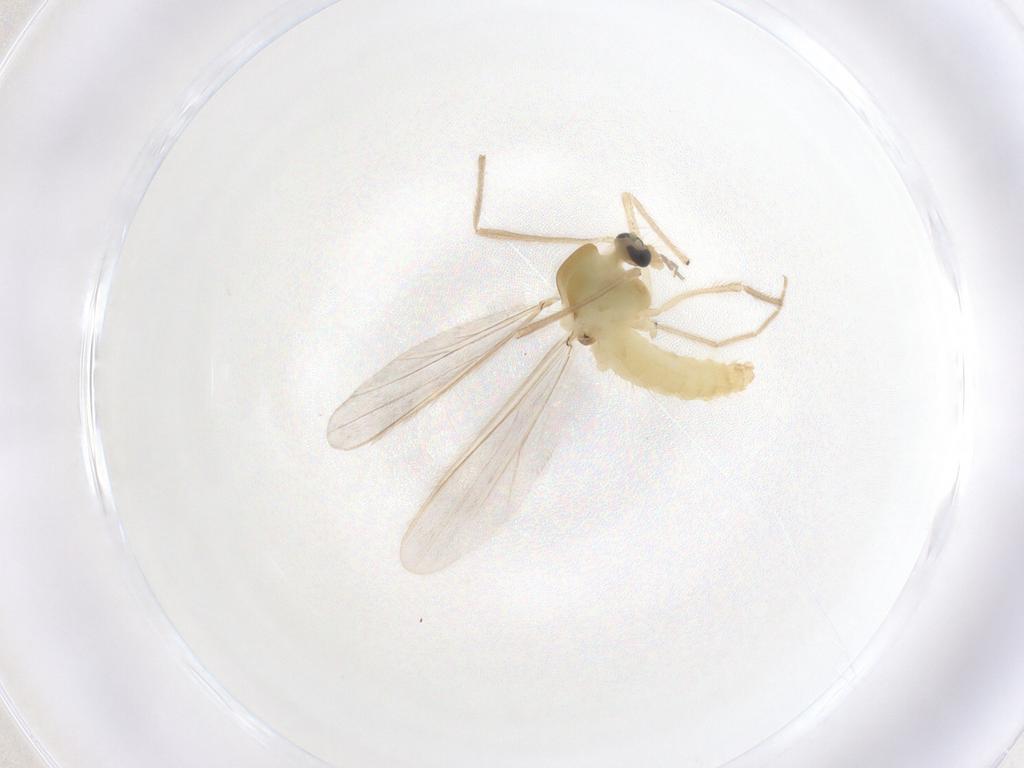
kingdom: Animalia
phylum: Arthropoda
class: Insecta
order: Diptera
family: Chironomidae
